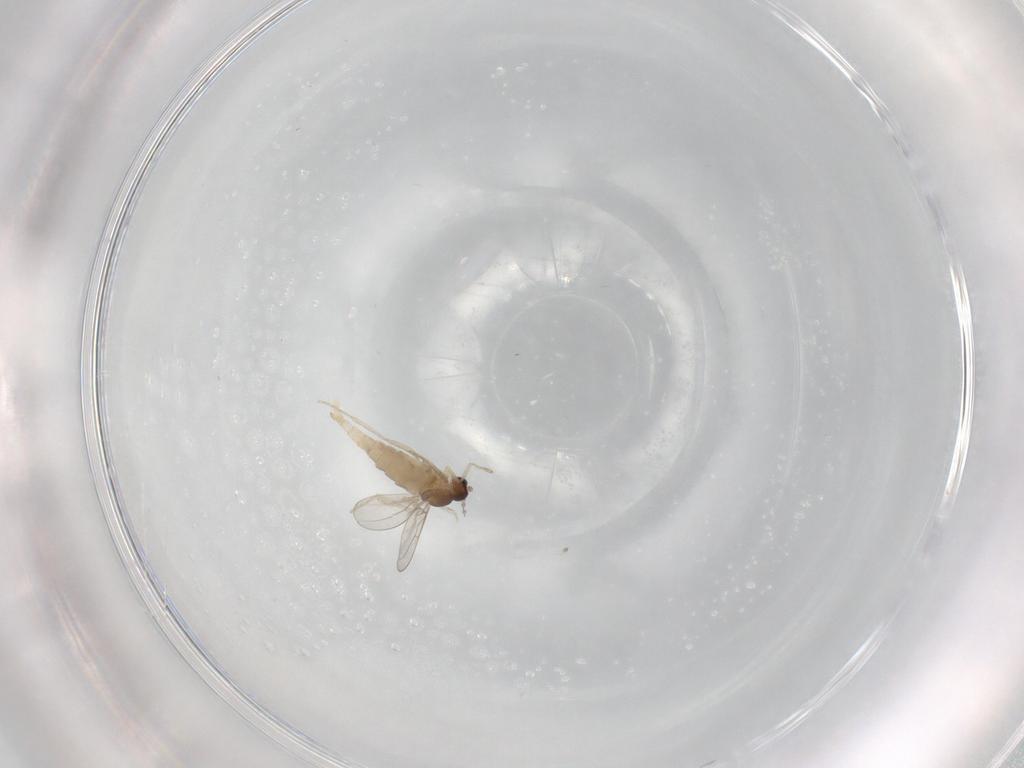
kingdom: Animalia
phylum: Arthropoda
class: Insecta
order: Diptera
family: Cecidomyiidae
